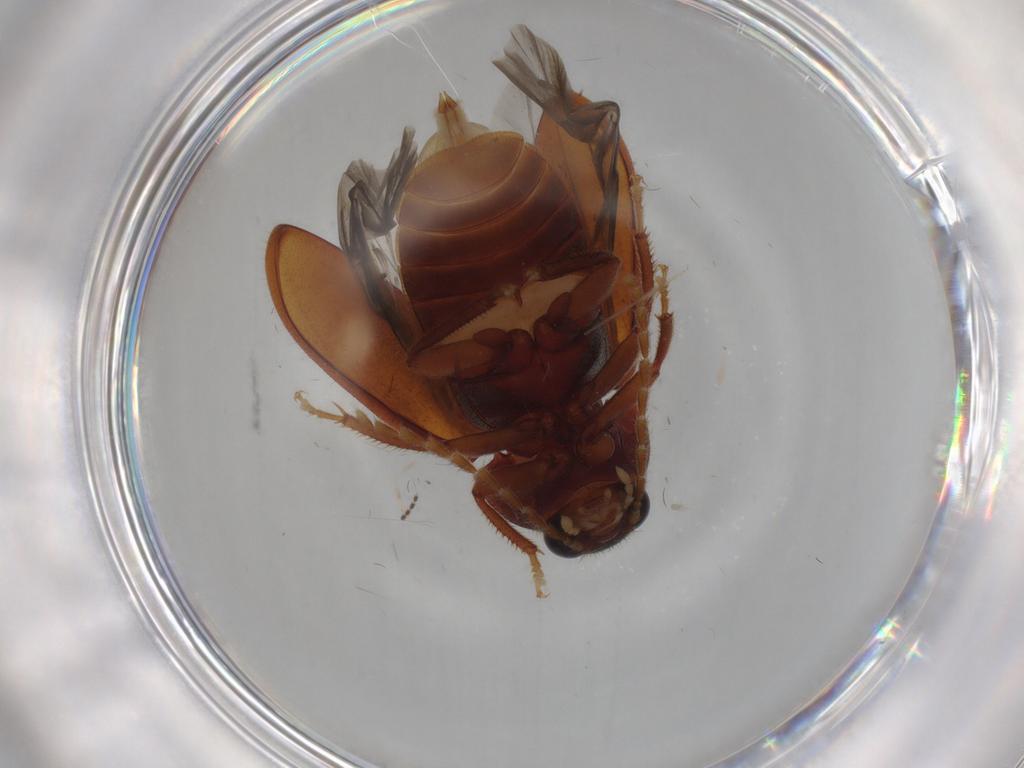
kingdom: Animalia
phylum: Arthropoda
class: Insecta
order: Coleoptera
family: Ptilodactylidae
